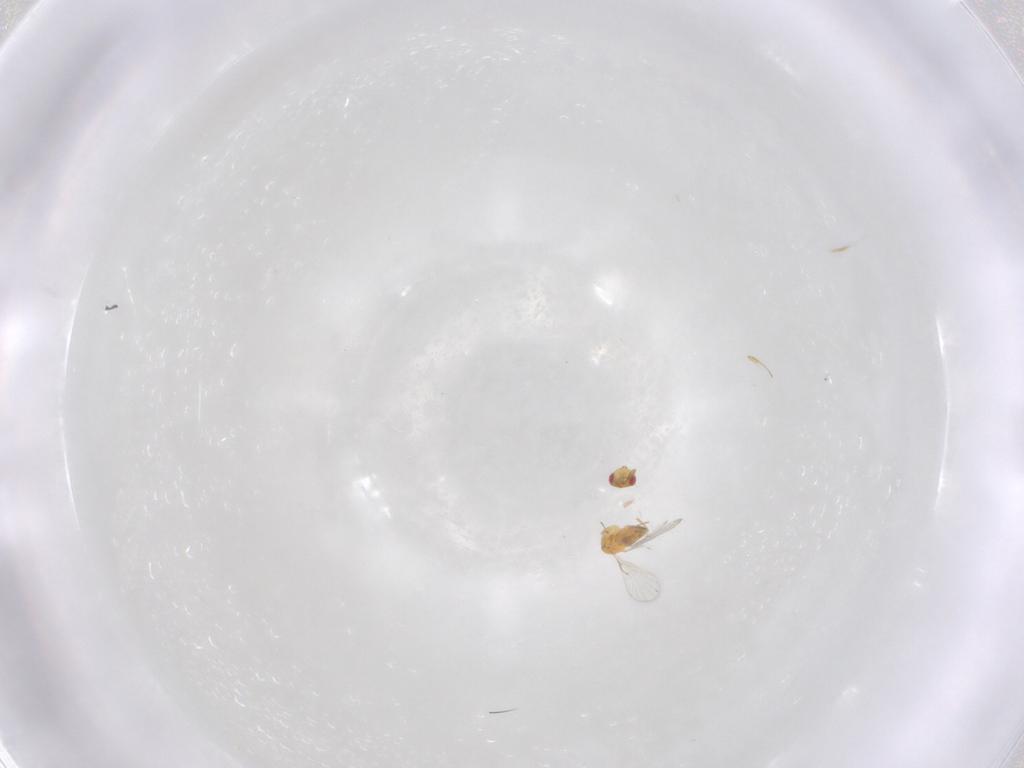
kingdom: Animalia
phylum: Arthropoda
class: Insecta
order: Hymenoptera
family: Trichogrammatidae
